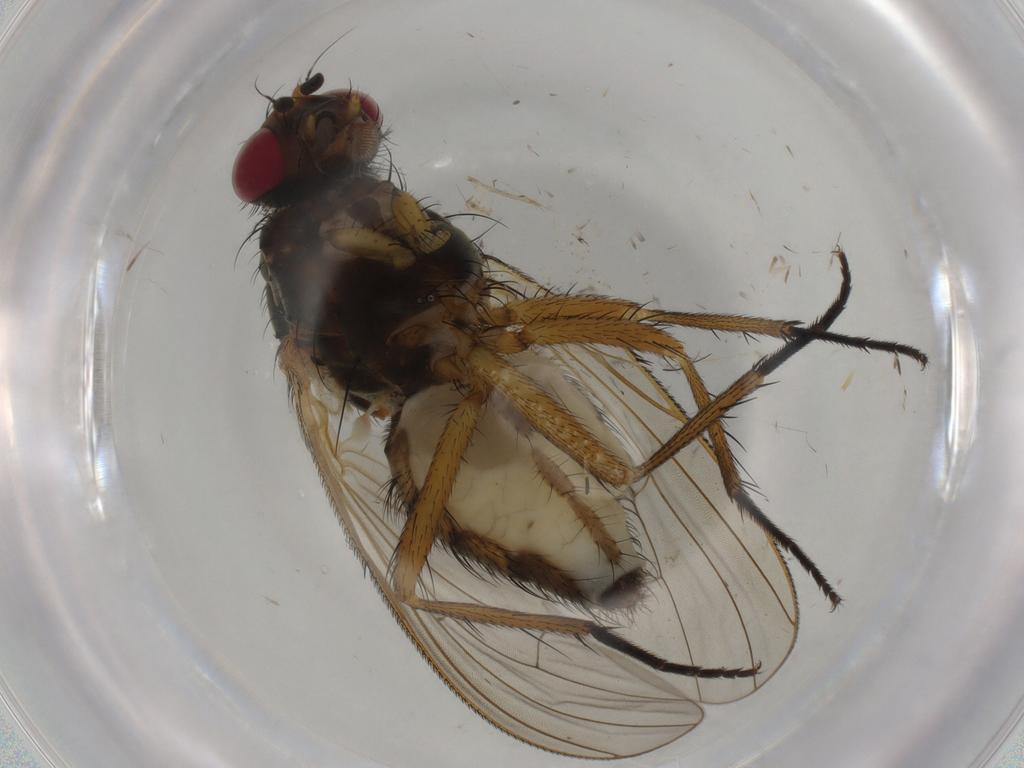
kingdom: Animalia
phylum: Arthropoda
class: Insecta
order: Diptera
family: Anthomyiidae
